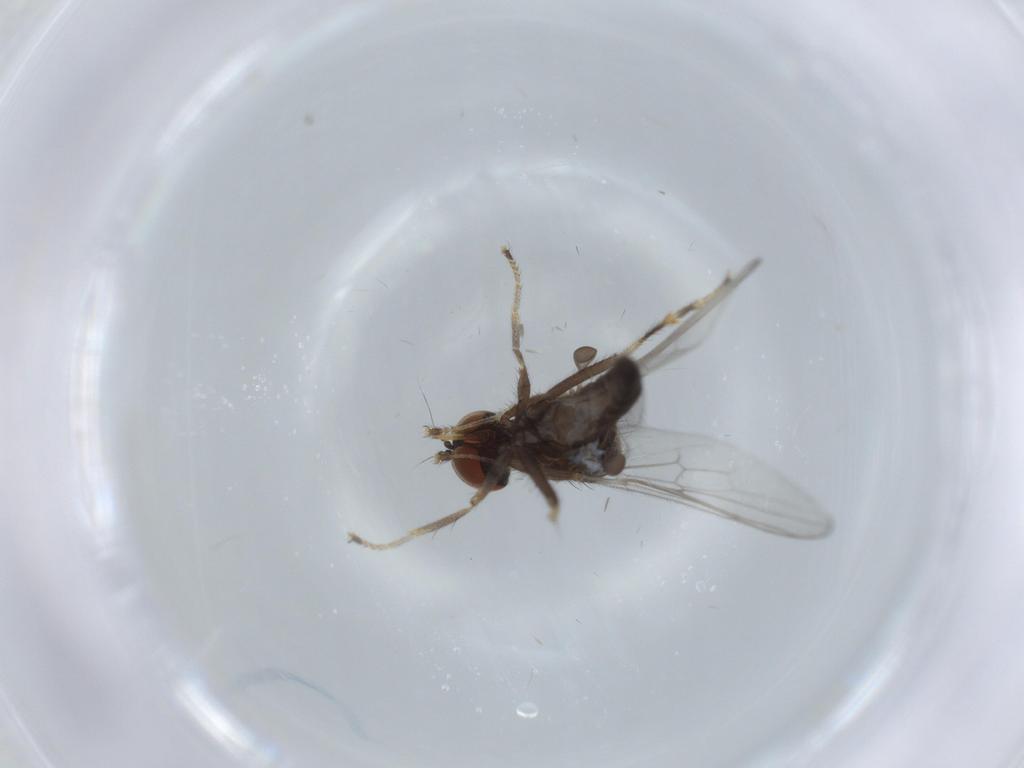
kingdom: Animalia
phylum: Arthropoda
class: Insecta
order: Diptera
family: Hybotidae
